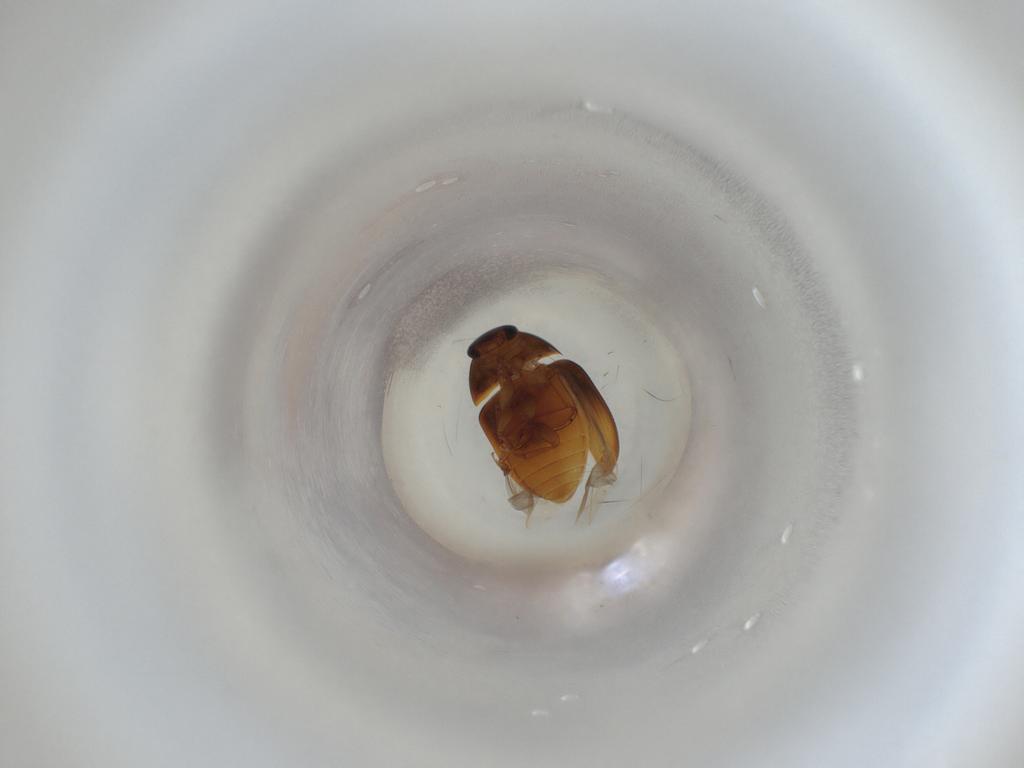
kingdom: Animalia
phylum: Arthropoda
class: Insecta
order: Coleoptera
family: Phalacridae
